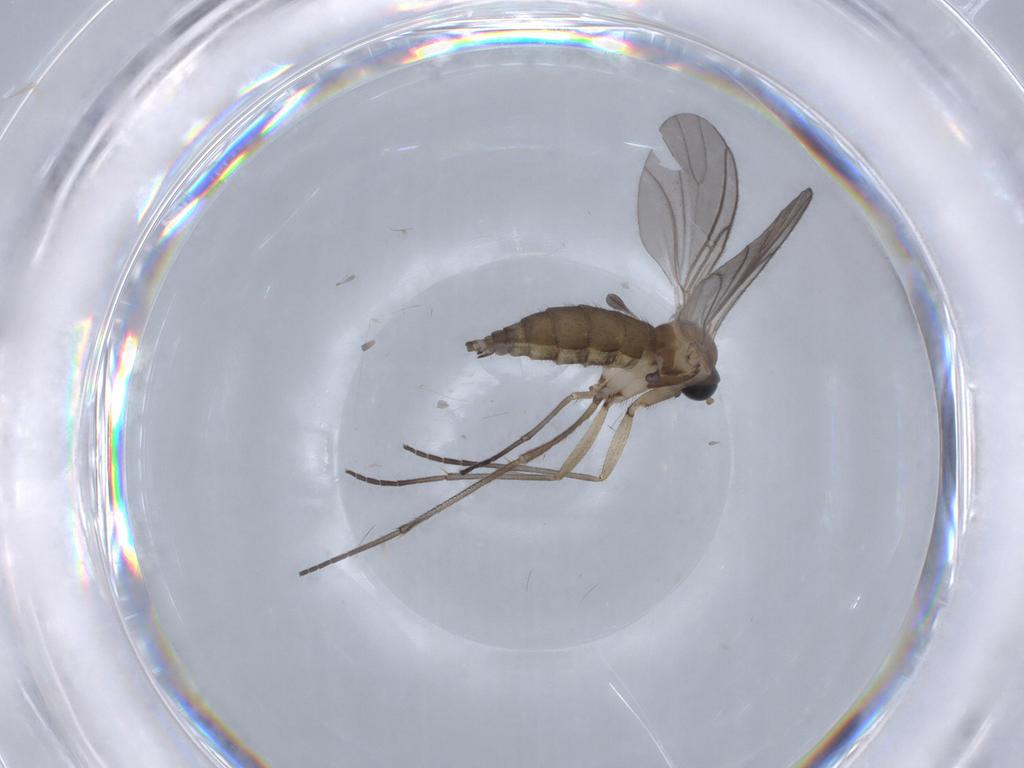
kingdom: Animalia
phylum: Arthropoda
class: Insecta
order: Diptera
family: Sciaridae
